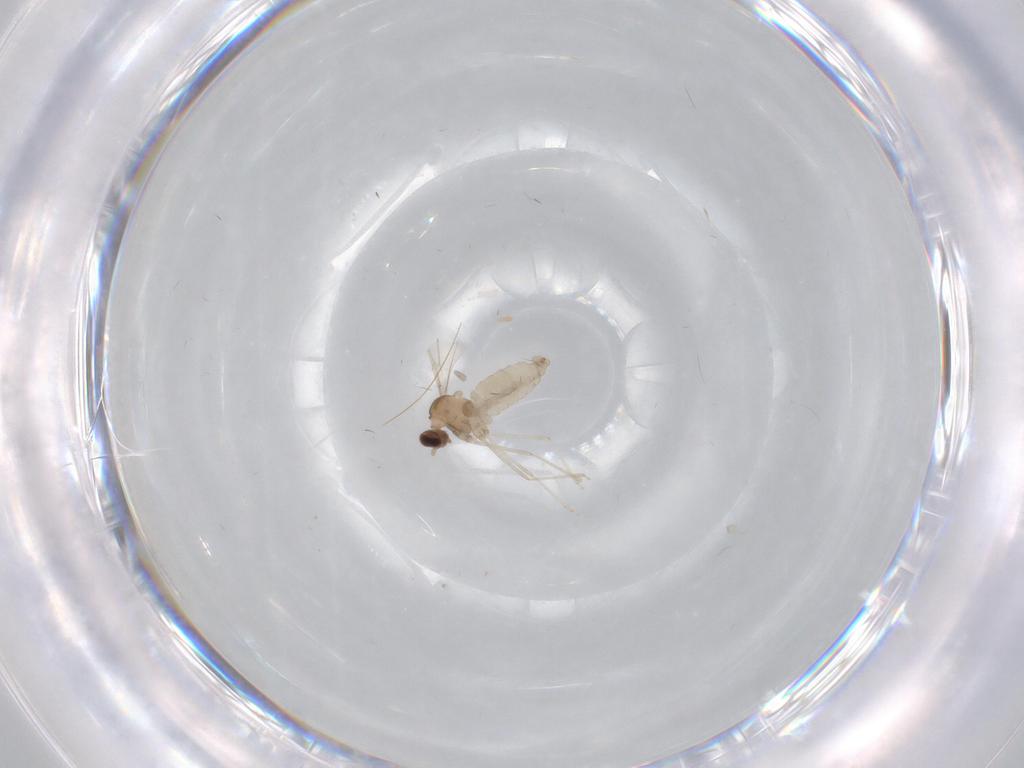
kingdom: Animalia
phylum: Arthropoda
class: Insecta
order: Diptera
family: Cecidomyiidae
